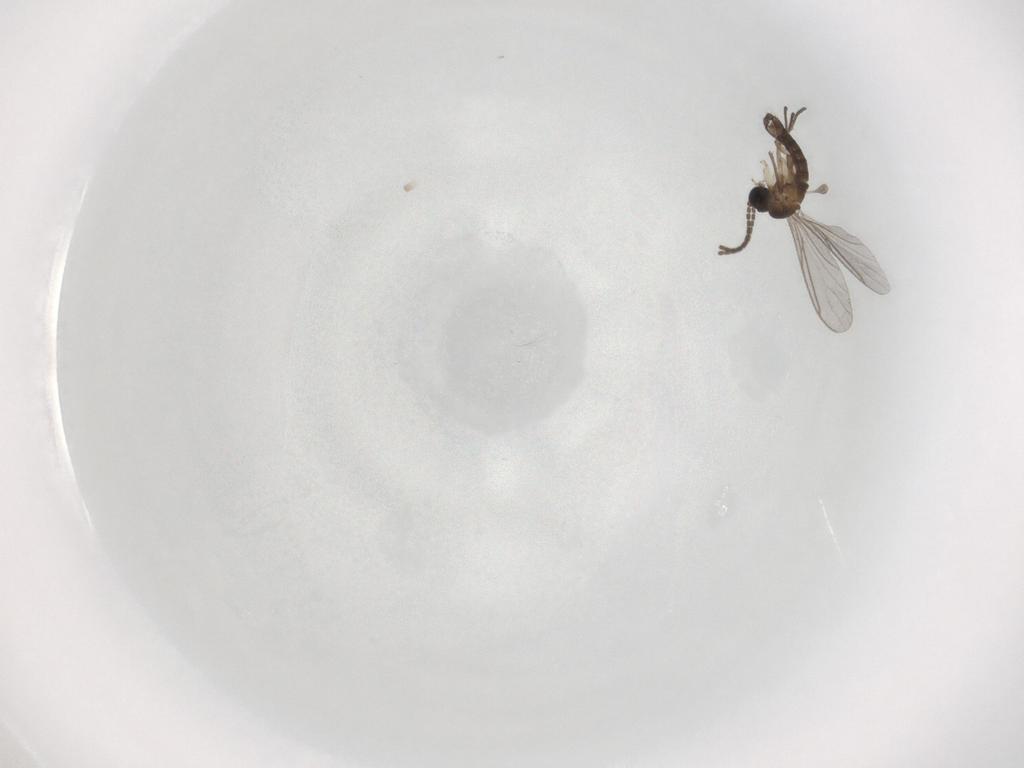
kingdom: Animalia
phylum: Arthropoda
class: Insecta
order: Diptera
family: Sciaridae
